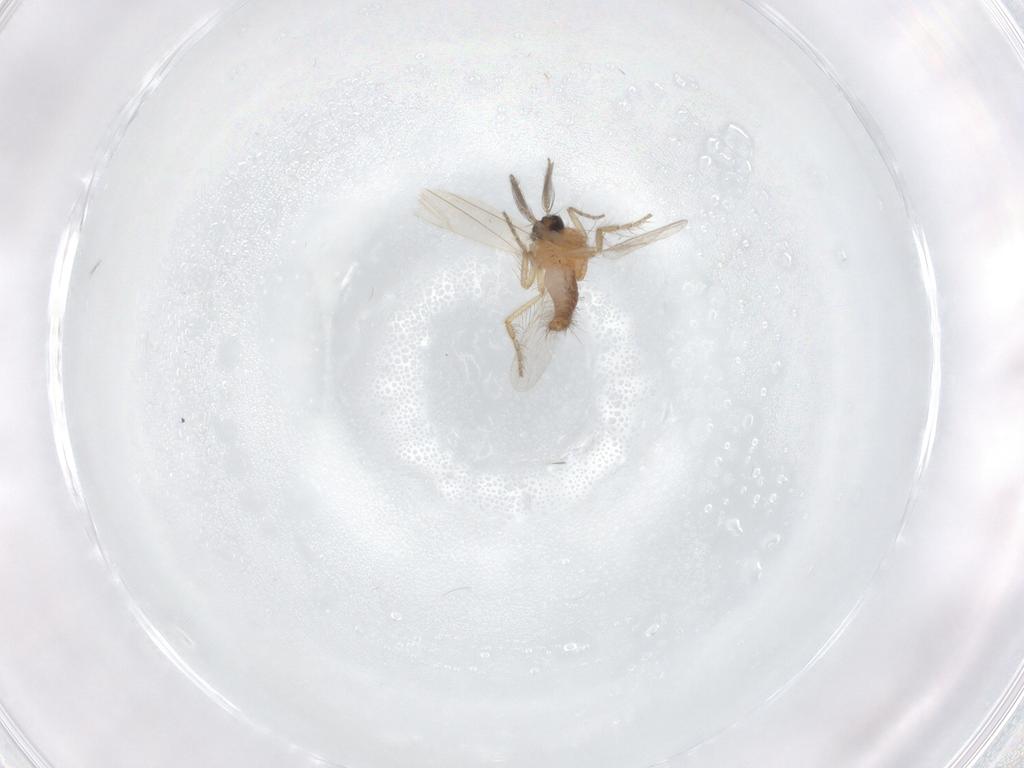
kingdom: Animalia
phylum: Arthropoda
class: Insecta
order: Diptera
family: Ceratopogonidae
